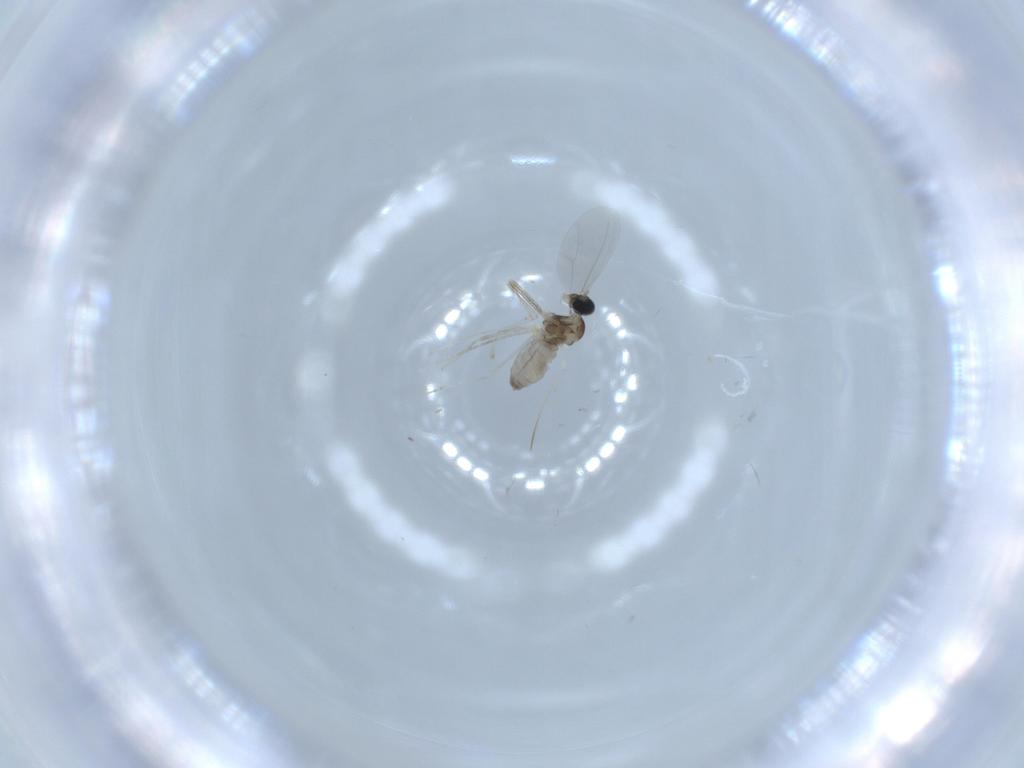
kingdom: Animalia
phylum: Arthropoda
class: Insecta
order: Diptera
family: Cecidomyiidae
